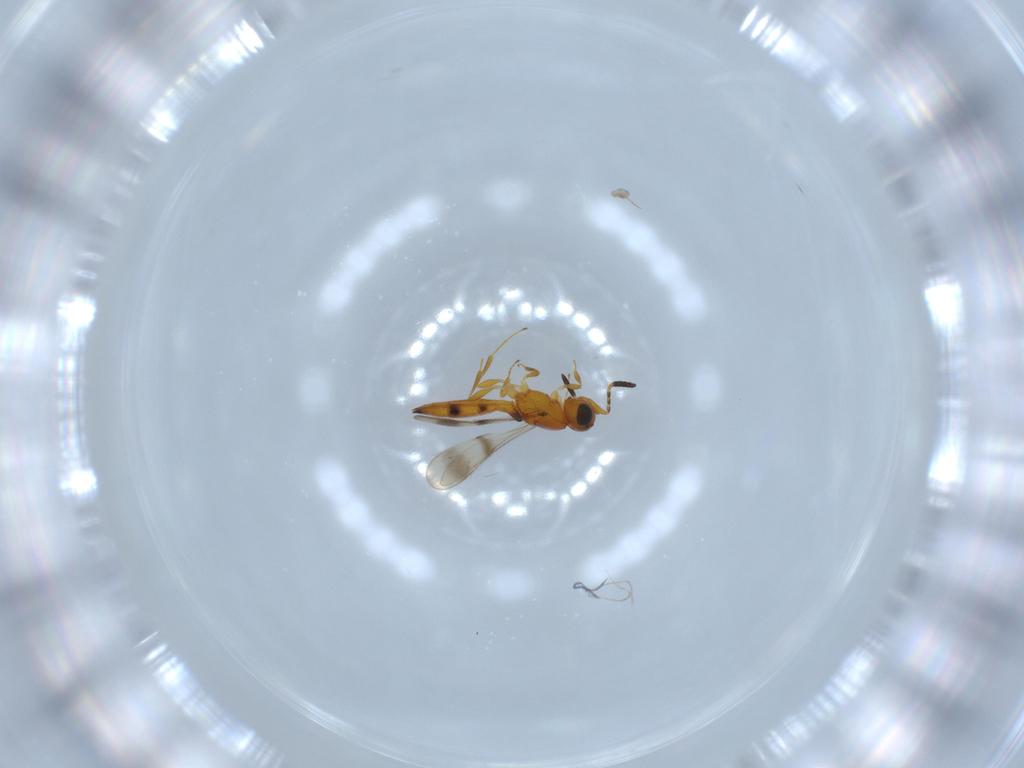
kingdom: Animalia
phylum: Arthropoda
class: Insecta
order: Hymenoptera
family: Scelionidae
